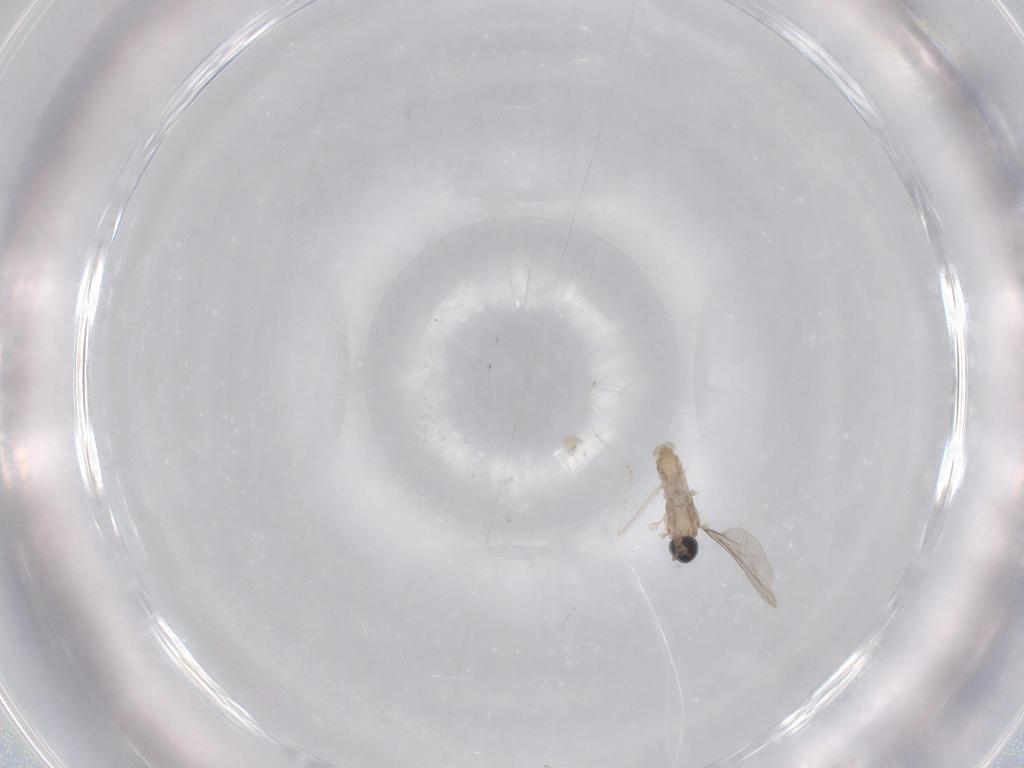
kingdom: Animalia
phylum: Arthropoda
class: Insecta
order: Diptera
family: Cecidomyiidae
